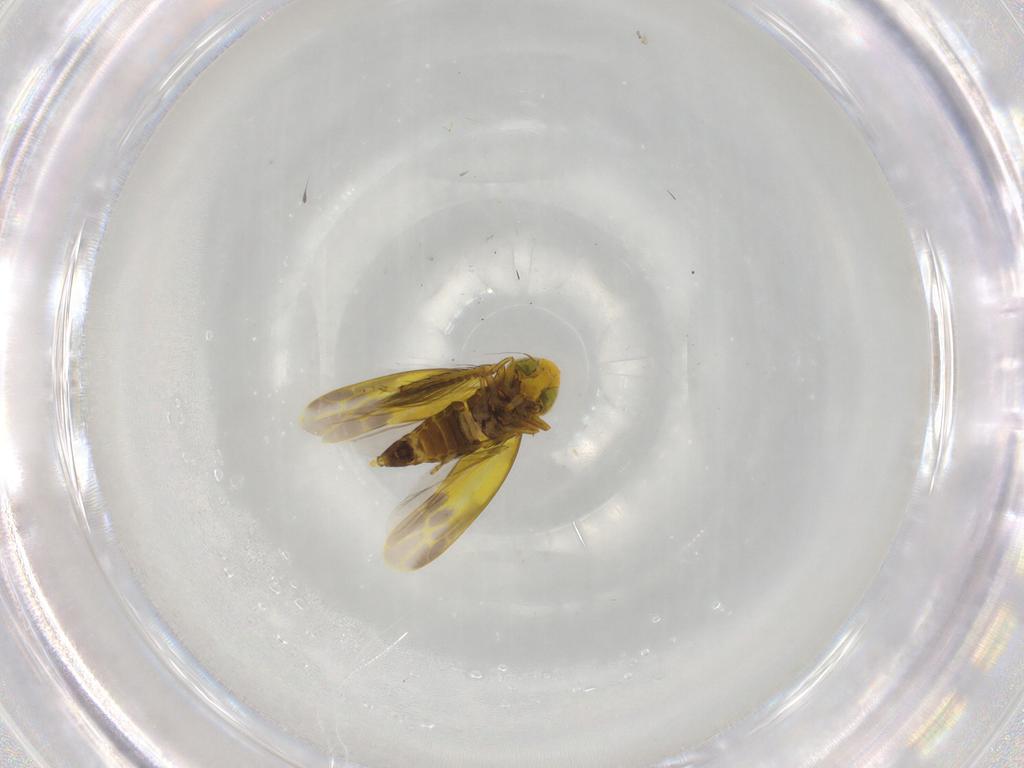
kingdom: Animalia
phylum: Arthropoda
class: Insecta
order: Hemiptera
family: Cicadellidae
